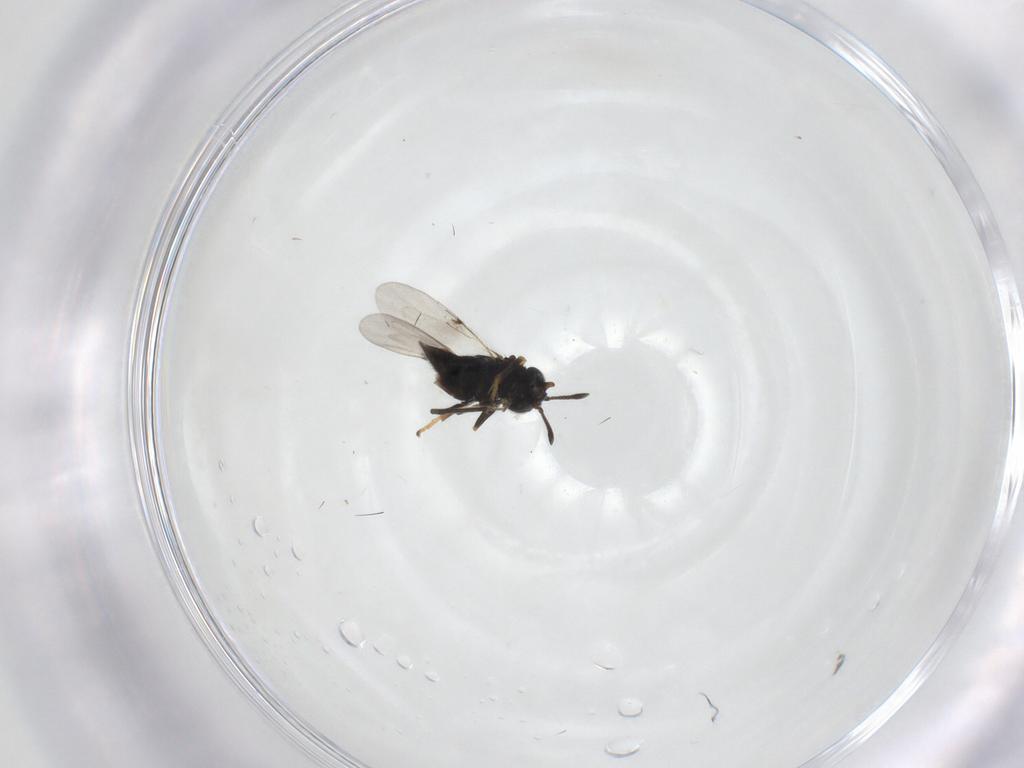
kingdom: Animalia
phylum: Arthropoda
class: Insecta
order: Hymenoptera
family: Encyrtidae
